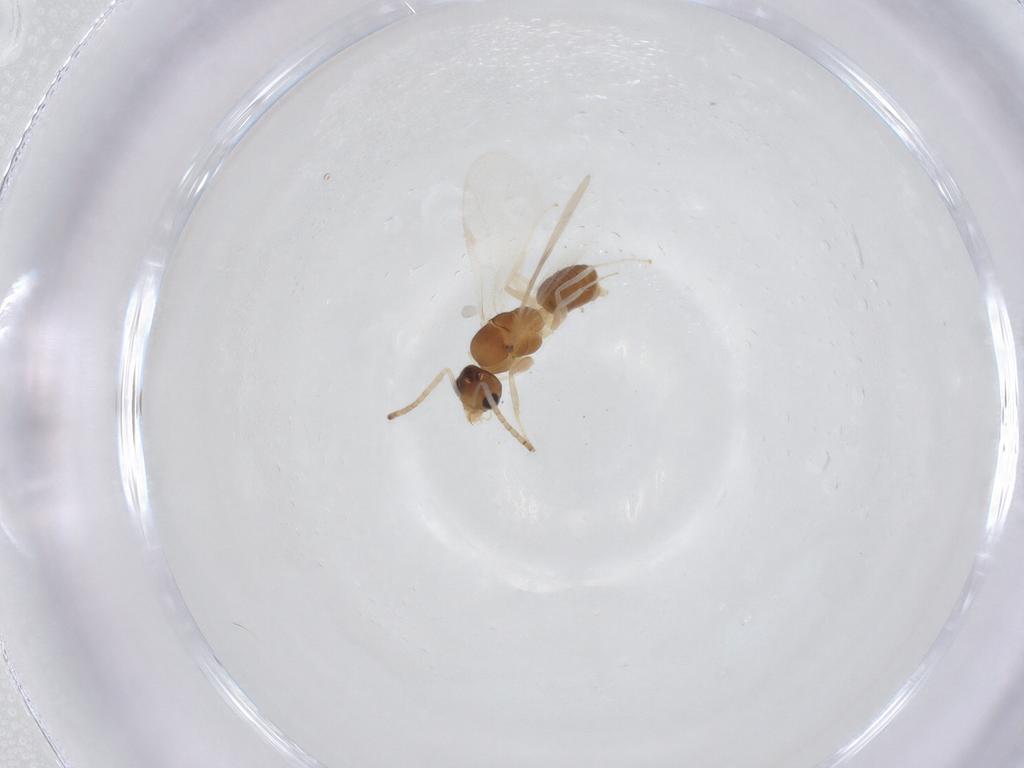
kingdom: Animalia
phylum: Arthropoda
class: Insecta
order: Hymenoptera
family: Formicidae
